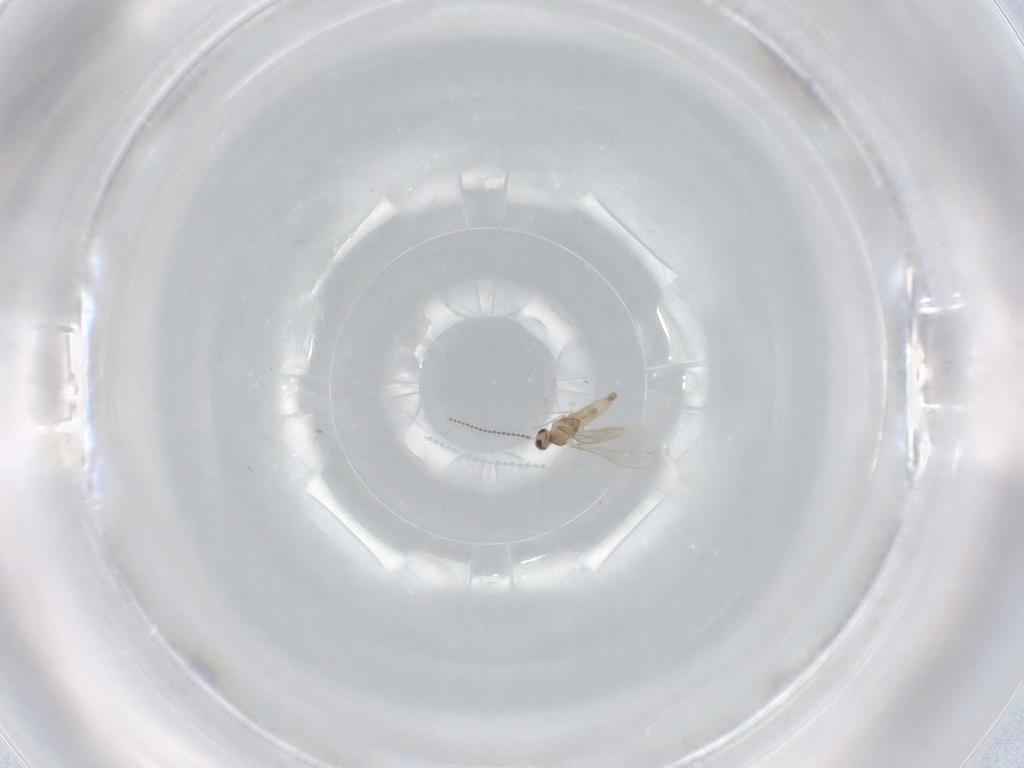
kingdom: Animalia
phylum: Arthropoda
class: Insecta
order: Diptera
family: Cecidomyiidae
